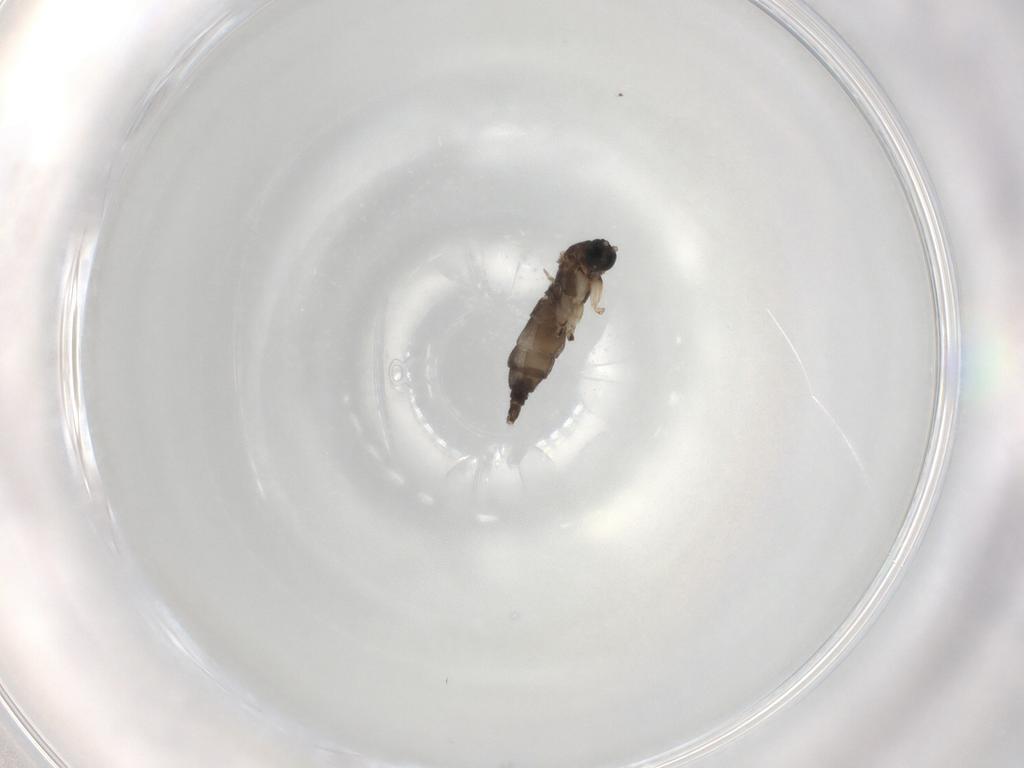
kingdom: Animalia
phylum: Arthropoda
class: Insecta
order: Diptera
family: Sciaridae
